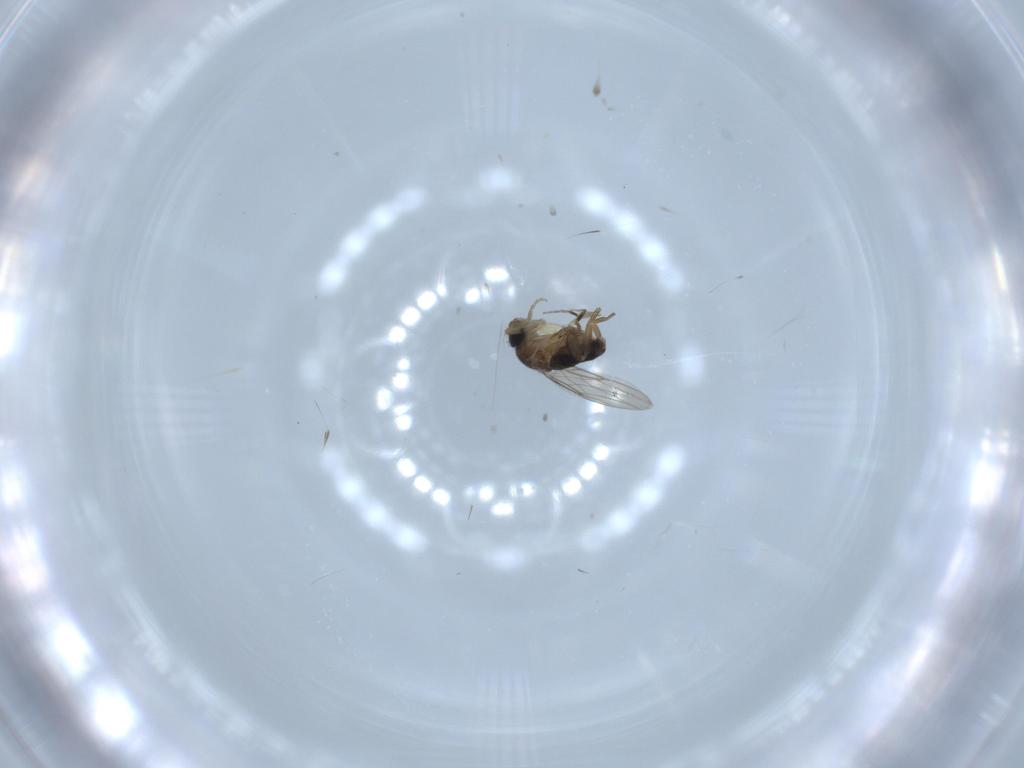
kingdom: Animalia
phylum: Arthropoda
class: Insecta
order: Diptera
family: Phoridae
